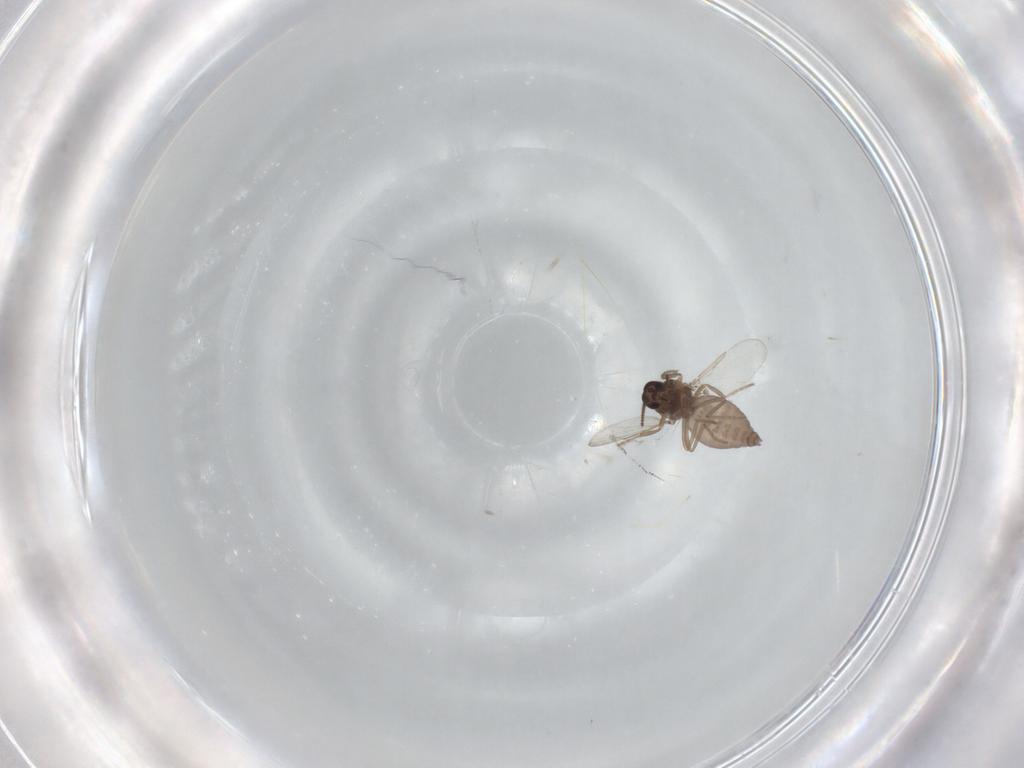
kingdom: Animalia
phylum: Arthropoda
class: Insecta
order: Diptera
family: Ceratopogonidae
